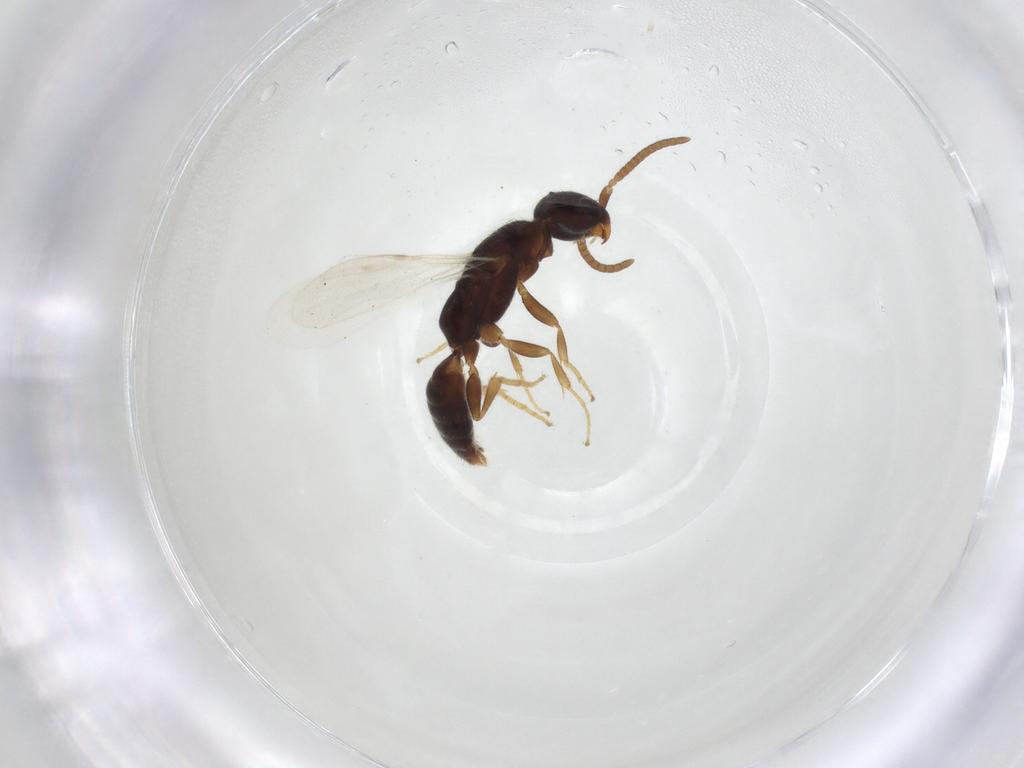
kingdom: Animalia
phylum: Arthropoda
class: Insecta
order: Hymenoptera
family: Bethylidae
